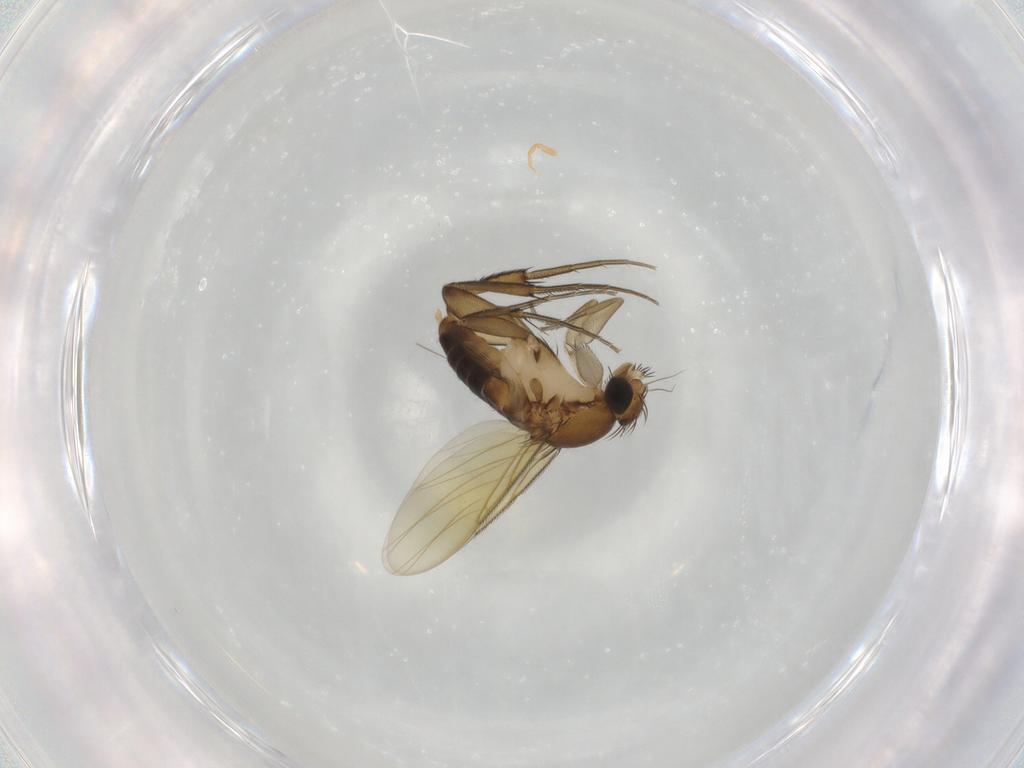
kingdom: Animalia
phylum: Arthropoda
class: Insecta
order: Diptera
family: Phoridae
